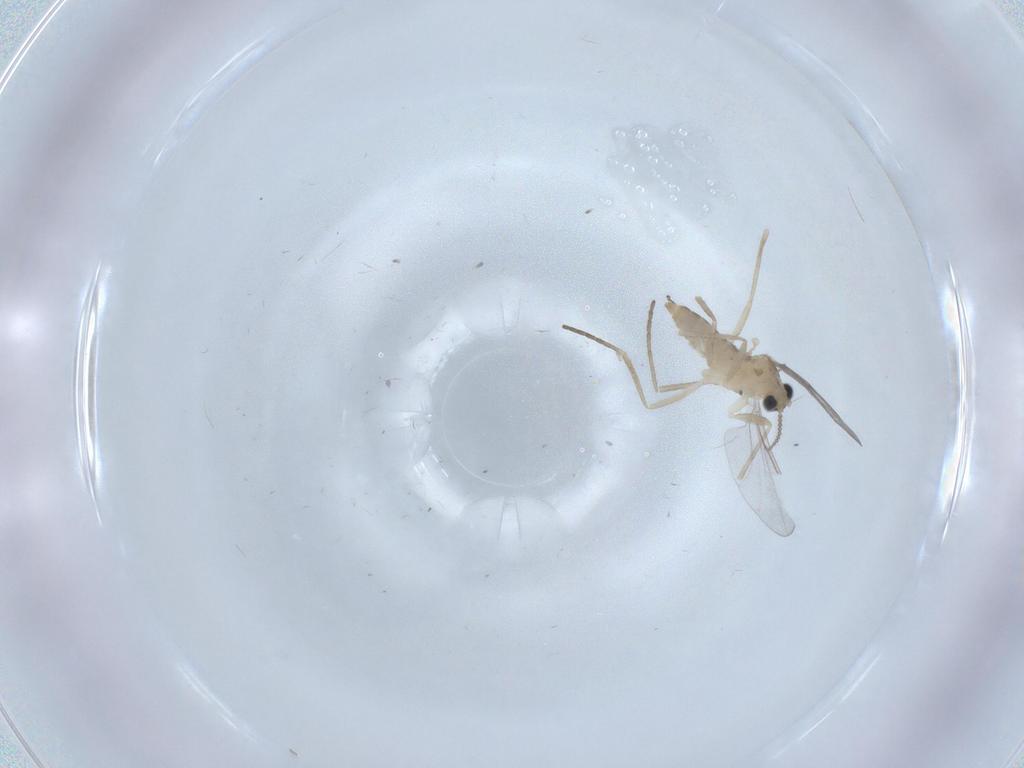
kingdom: Animalia
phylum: Arthropoda
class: Insecta
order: Diptera
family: Cecidomyiidae
